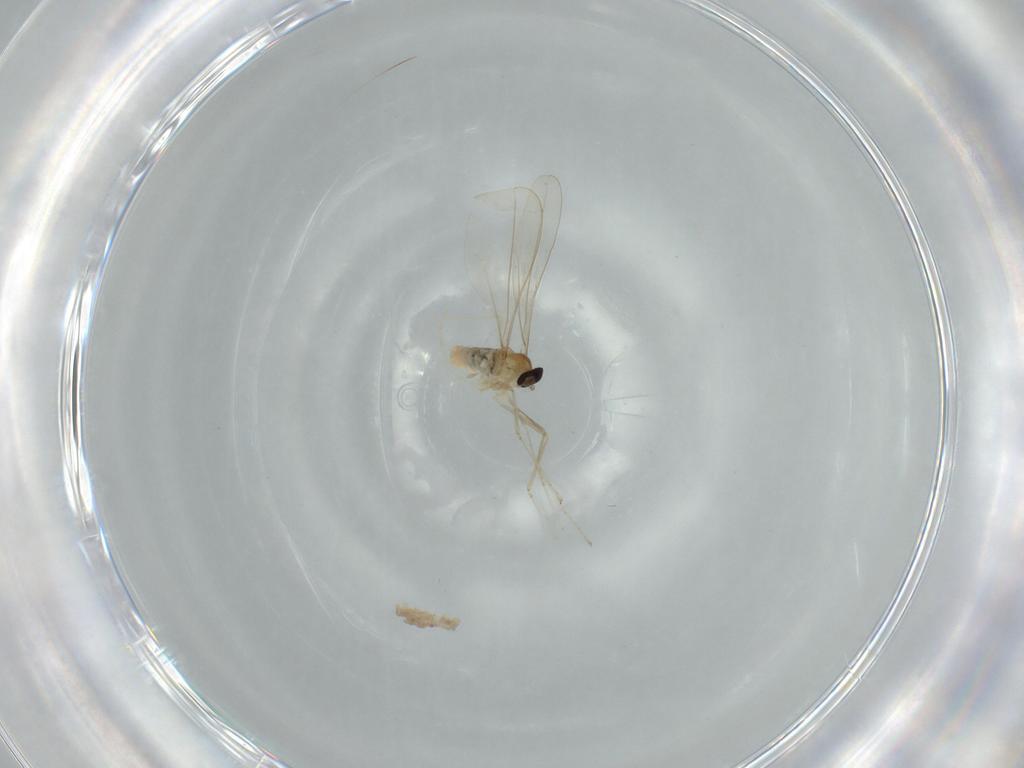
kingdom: Animalia
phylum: Arthropoda
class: Insecta
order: Diptera
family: Cecidomyiidae
